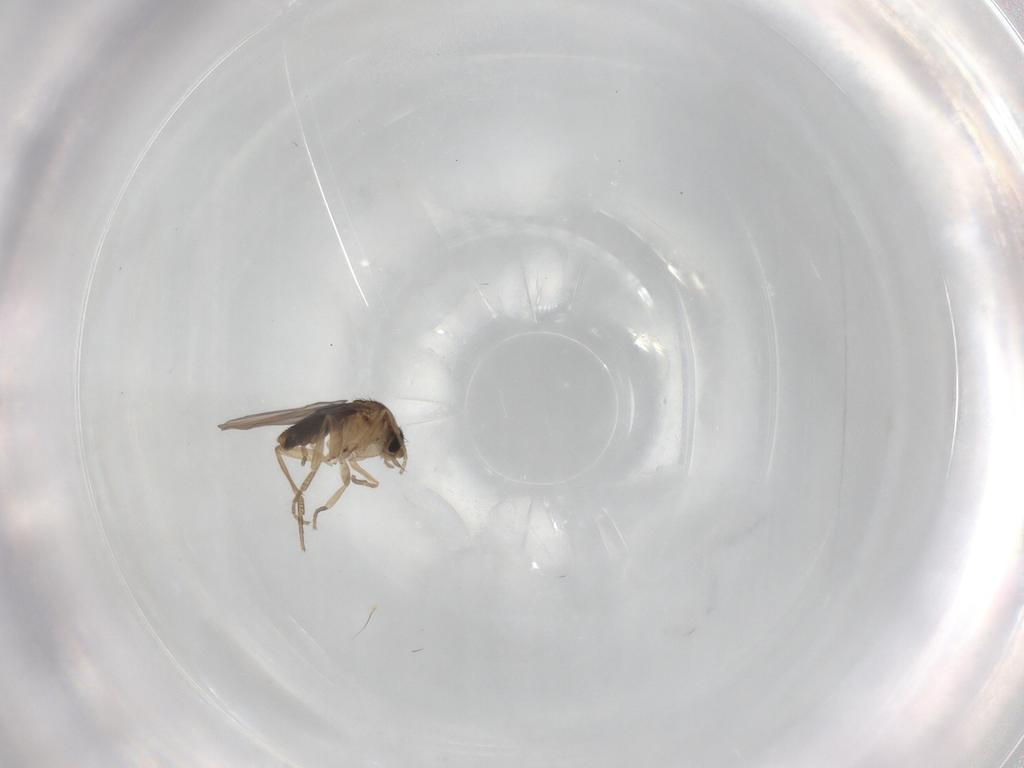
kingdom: Animalia
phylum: Arthropoda
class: Insecta
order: Diptera
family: Phoridae
